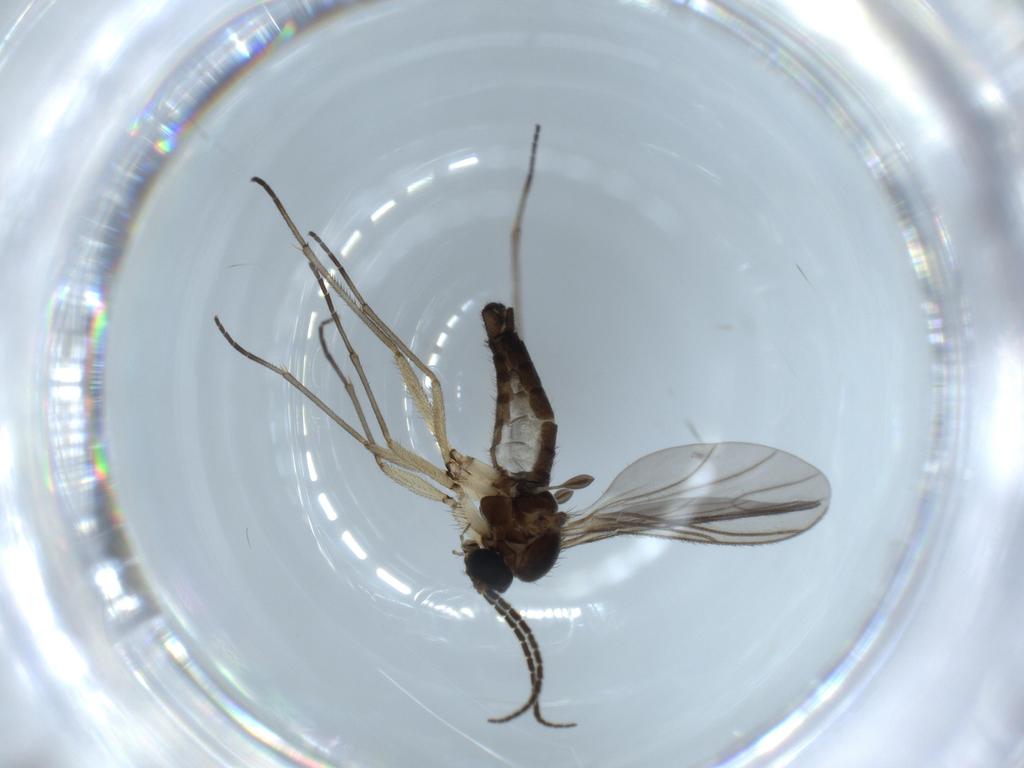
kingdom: Animalia
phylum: Arthropoda
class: Insecta
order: Diptera
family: Sciaridae
